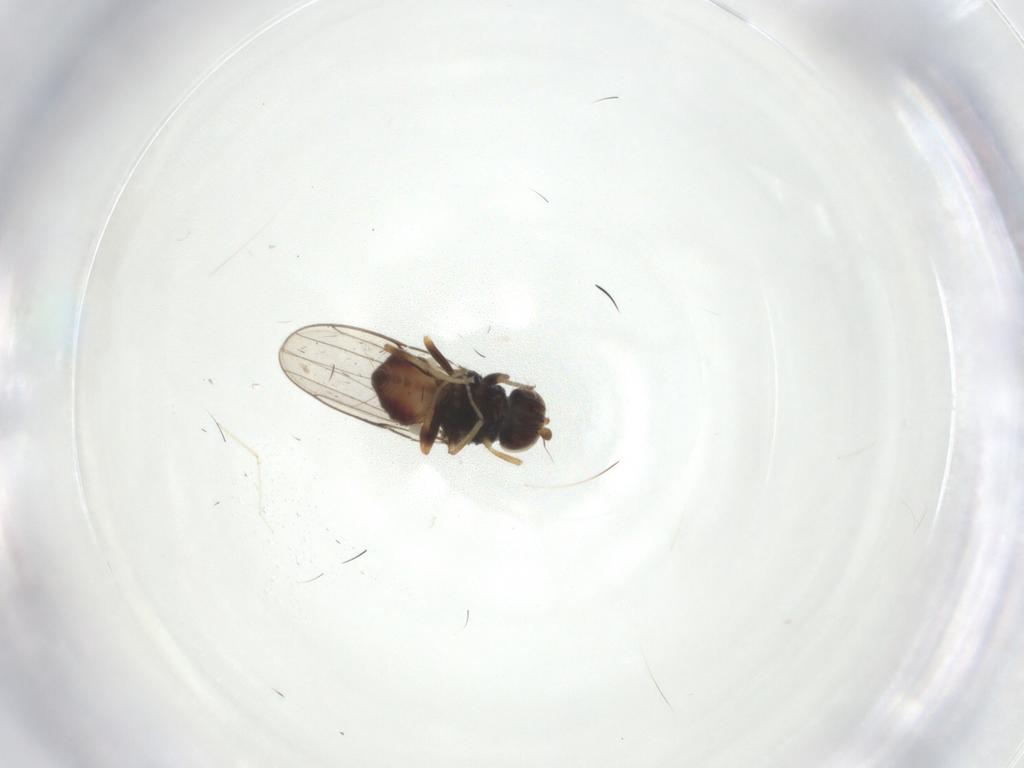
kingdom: Animalia
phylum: Arthropoda
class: Insecta
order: Diptera
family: Chloropidae
